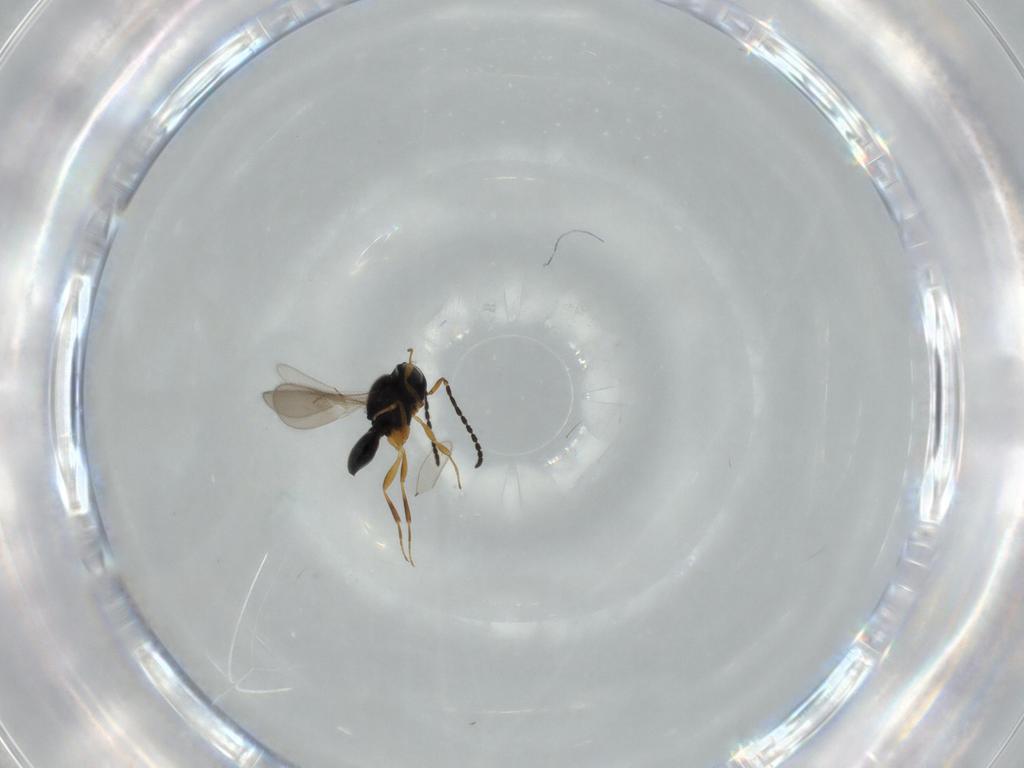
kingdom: Animalia
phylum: Arthropoda
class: Insecta
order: Hymenoptera
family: Scelionidae
